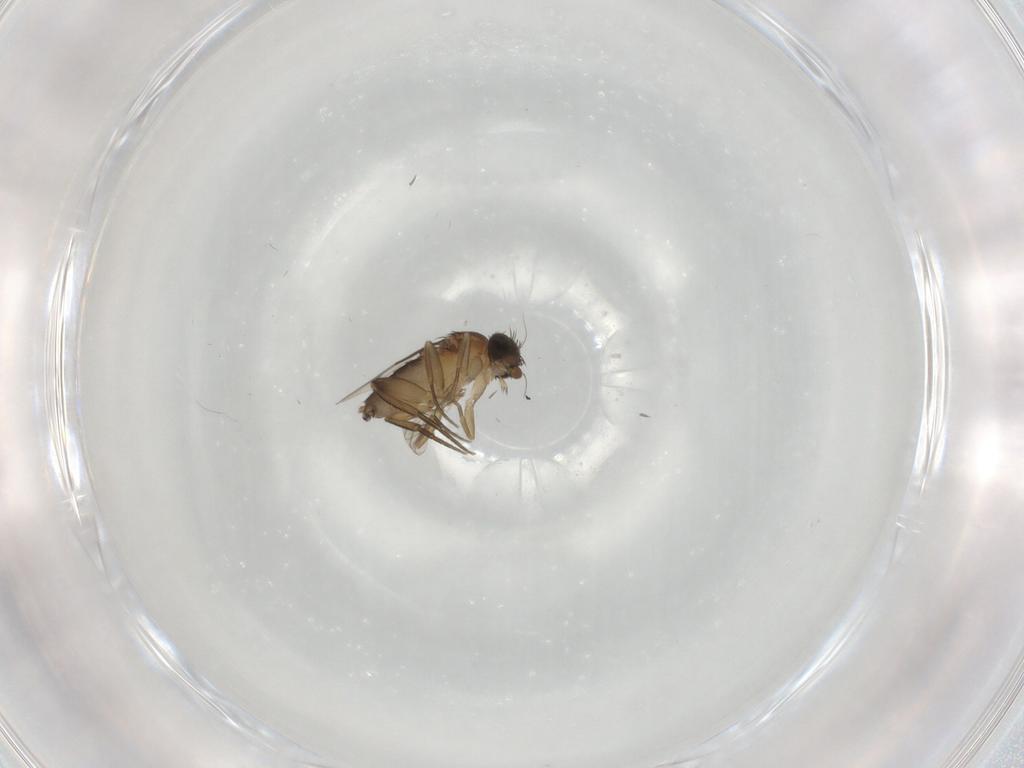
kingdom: Animalia
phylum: Arthropoda
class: Insecta
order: Diptera
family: Phoridae
